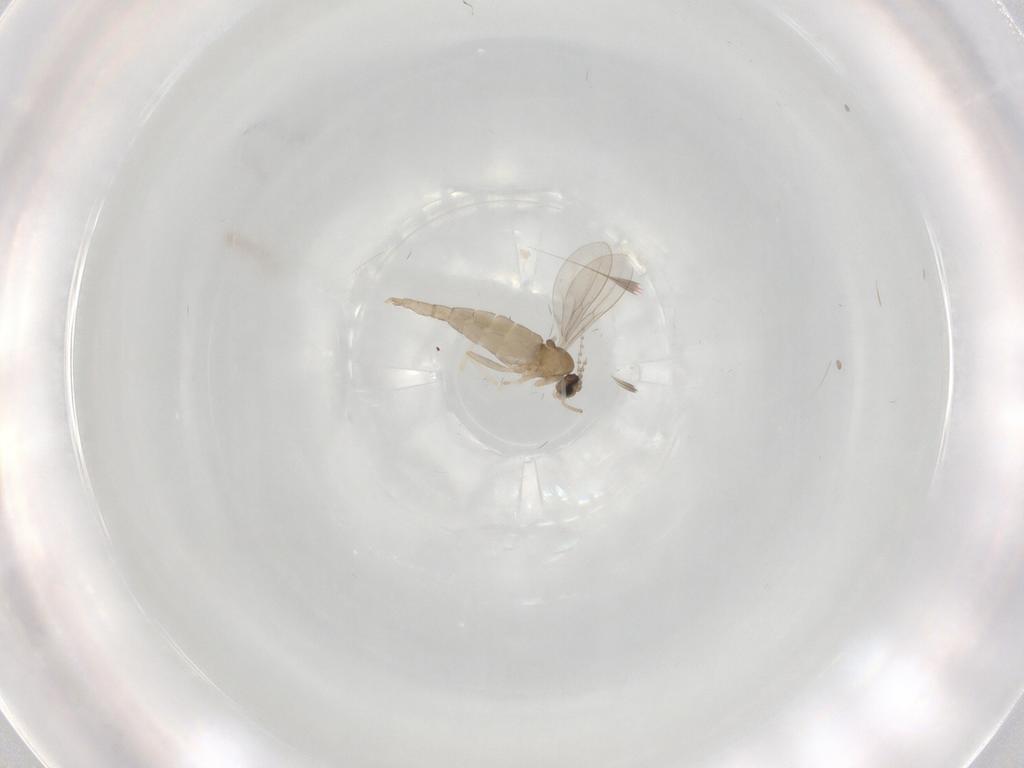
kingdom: Animalia
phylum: Arthropoda
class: Insecta
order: Diptera
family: Cecidomyiidae
